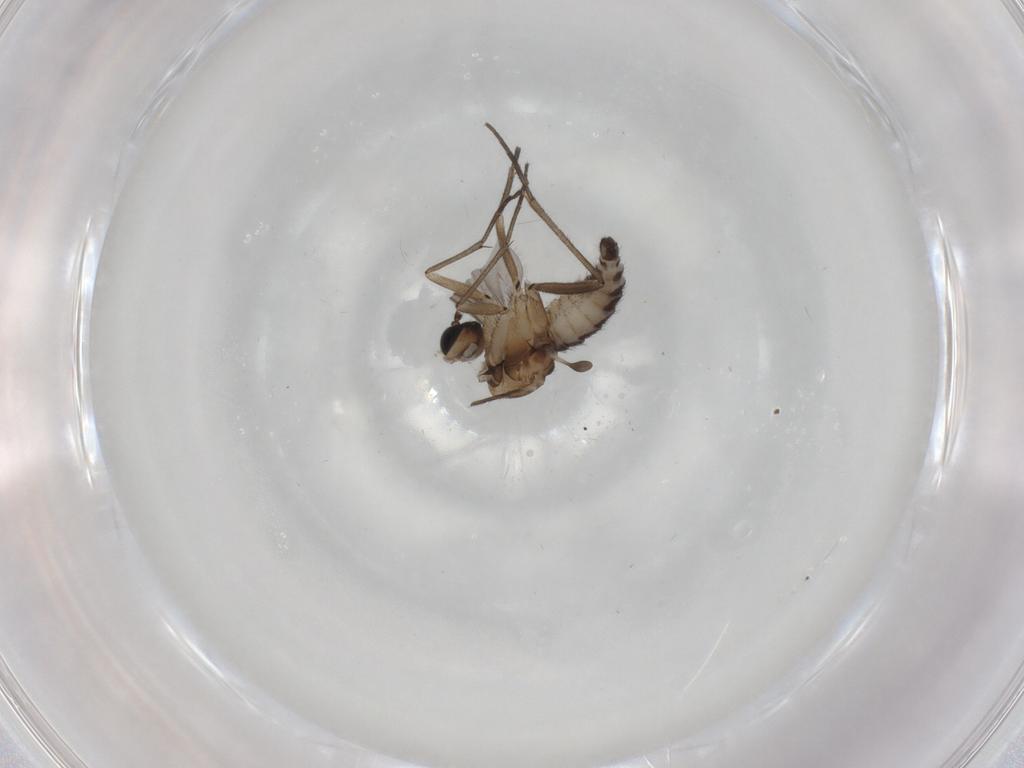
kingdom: Animalia
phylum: Arthropoda
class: Insecta
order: Diptera
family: Sciaridae
